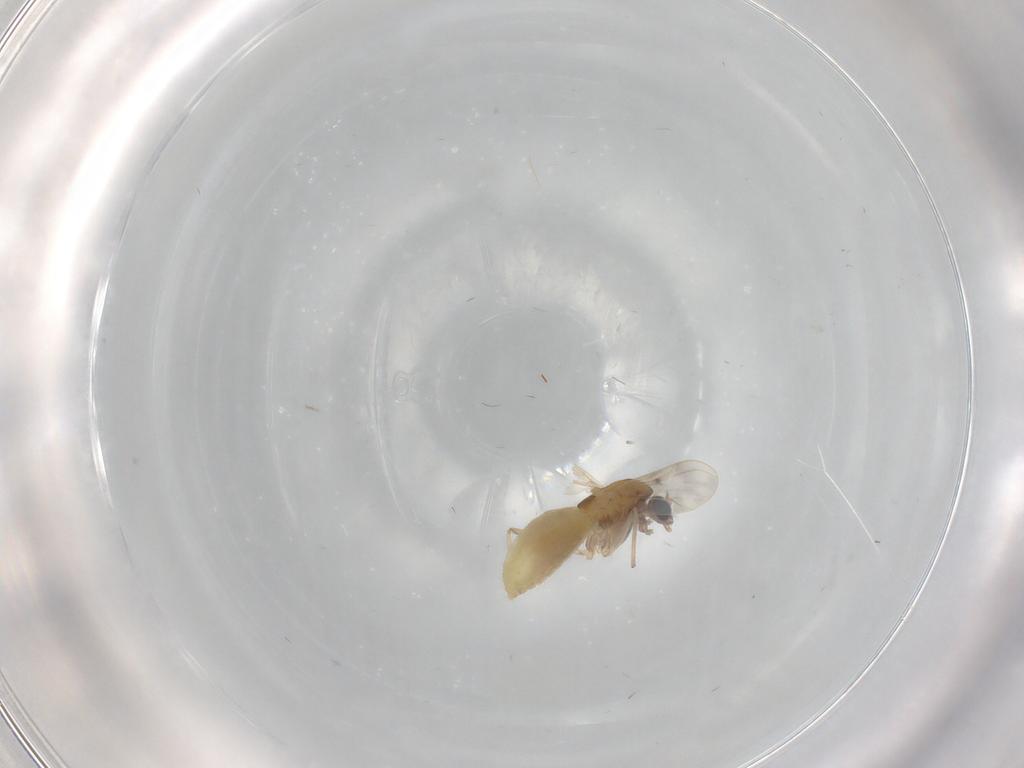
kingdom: Animalia
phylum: Arthropoda
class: Insecta
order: Diptera
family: Chironomidae
